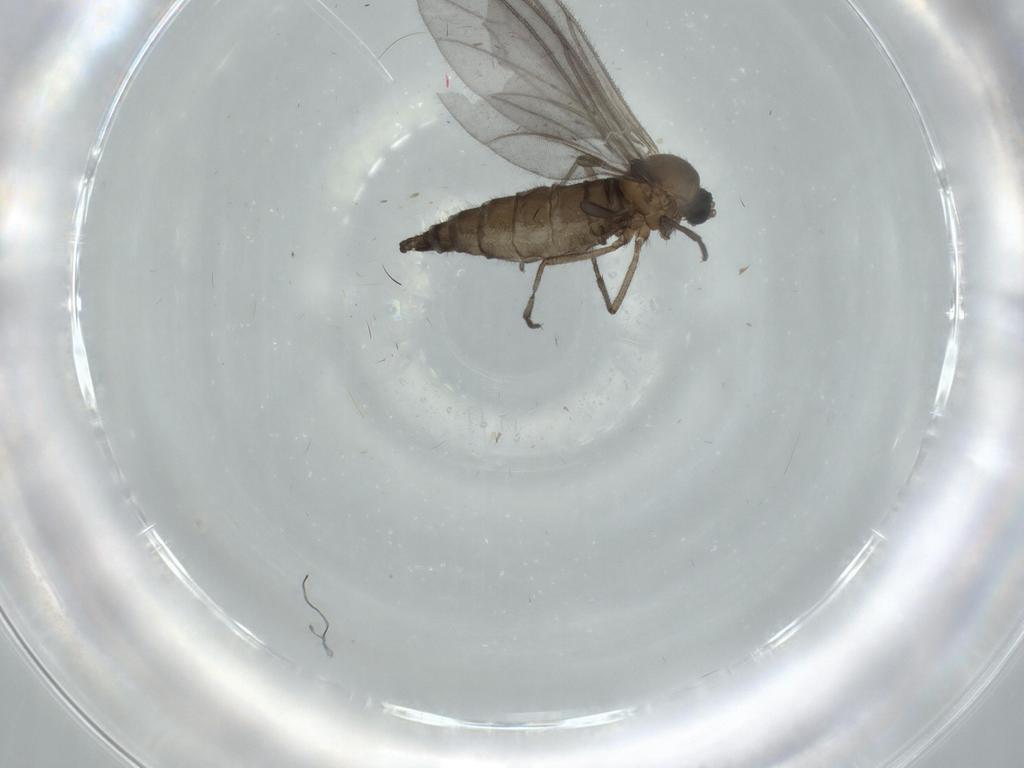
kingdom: Animalia
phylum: Arthropoda
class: Insecta
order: Diptera
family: Sciaridae
